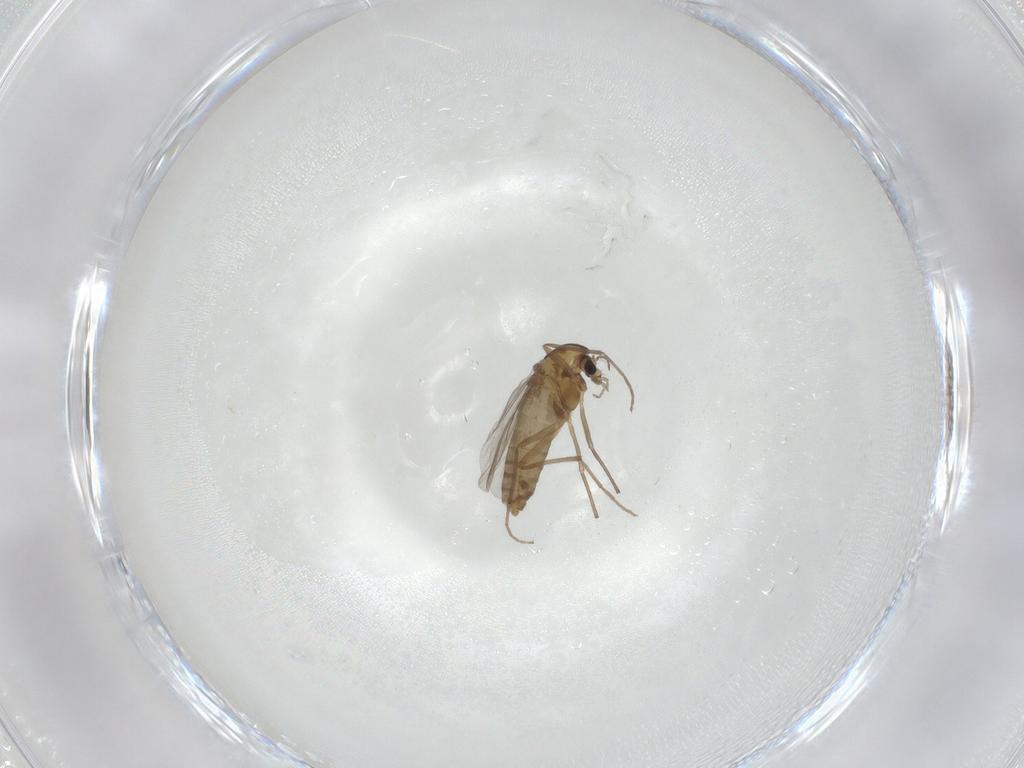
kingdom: Animalia
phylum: Arthropoda
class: Insecta
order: Diptera
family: Chironomidae
